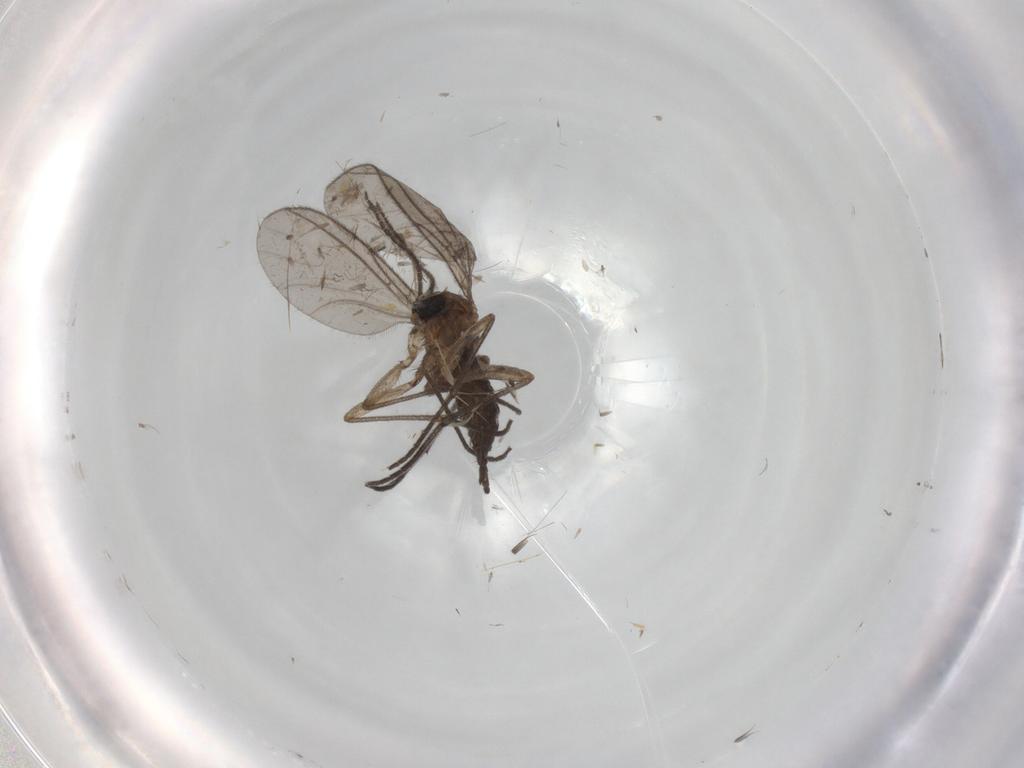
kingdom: Animalia
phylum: Arthropoda
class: Insecta
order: Diptera
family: Sciaridae
